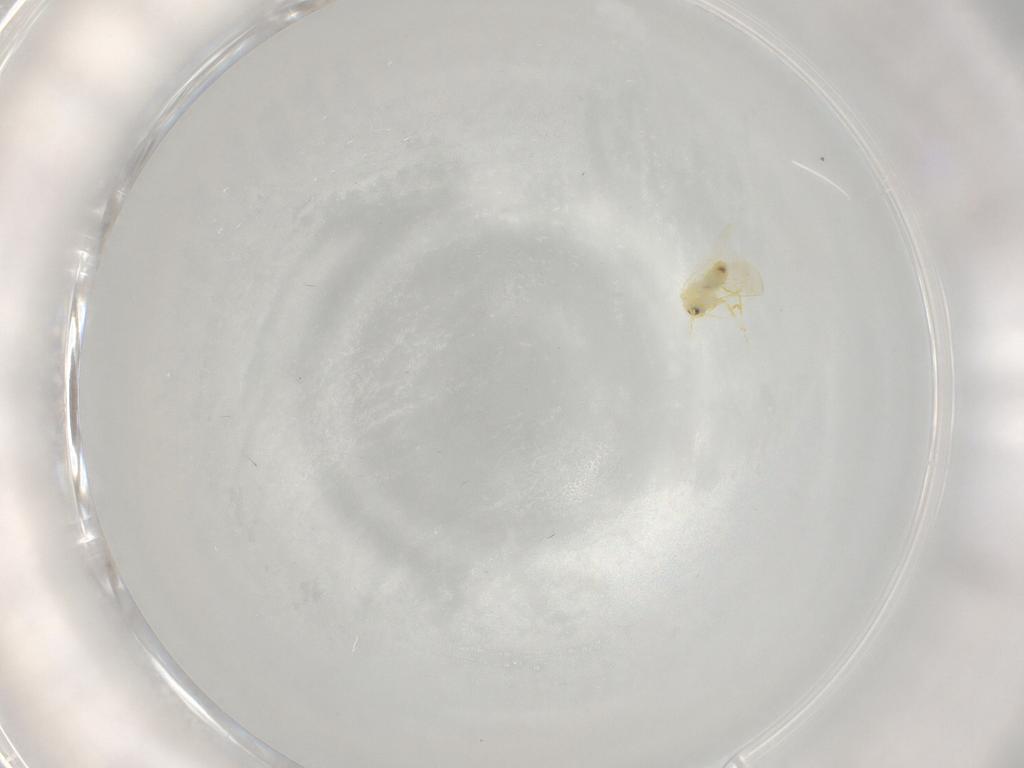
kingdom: Animalia
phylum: Arthropoda
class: Insecta
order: Hemiptera
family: Aleyrodidae
